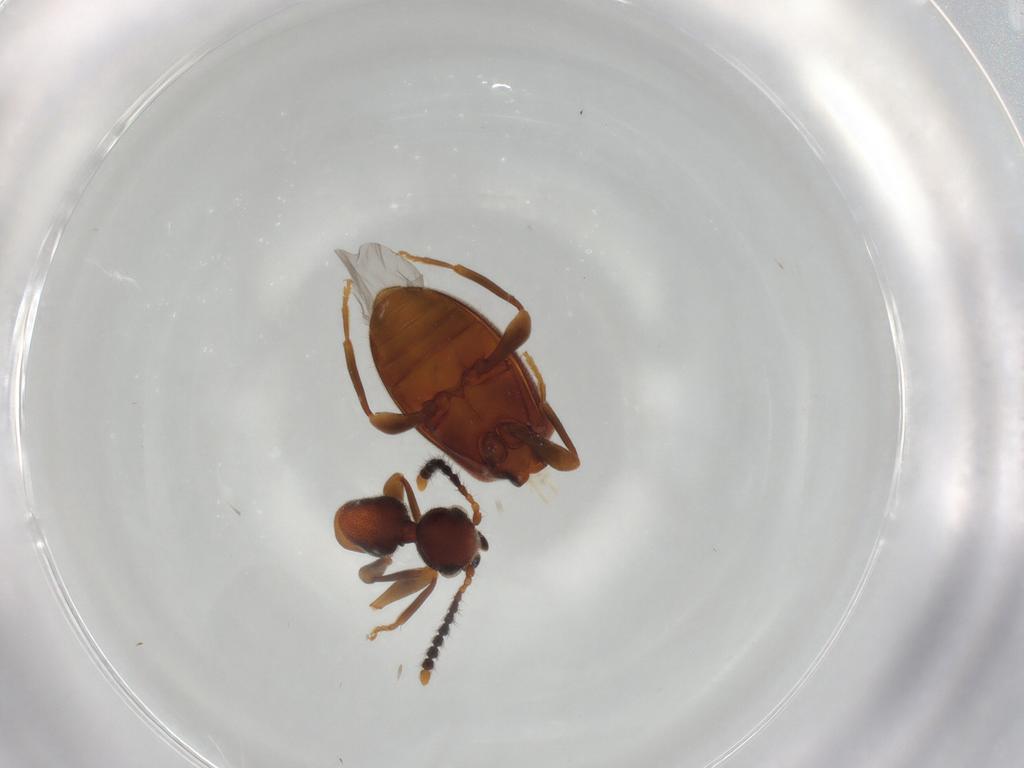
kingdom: Animalia
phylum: Arthropoda
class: Insecta
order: Coleoptera
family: Anthicidae
